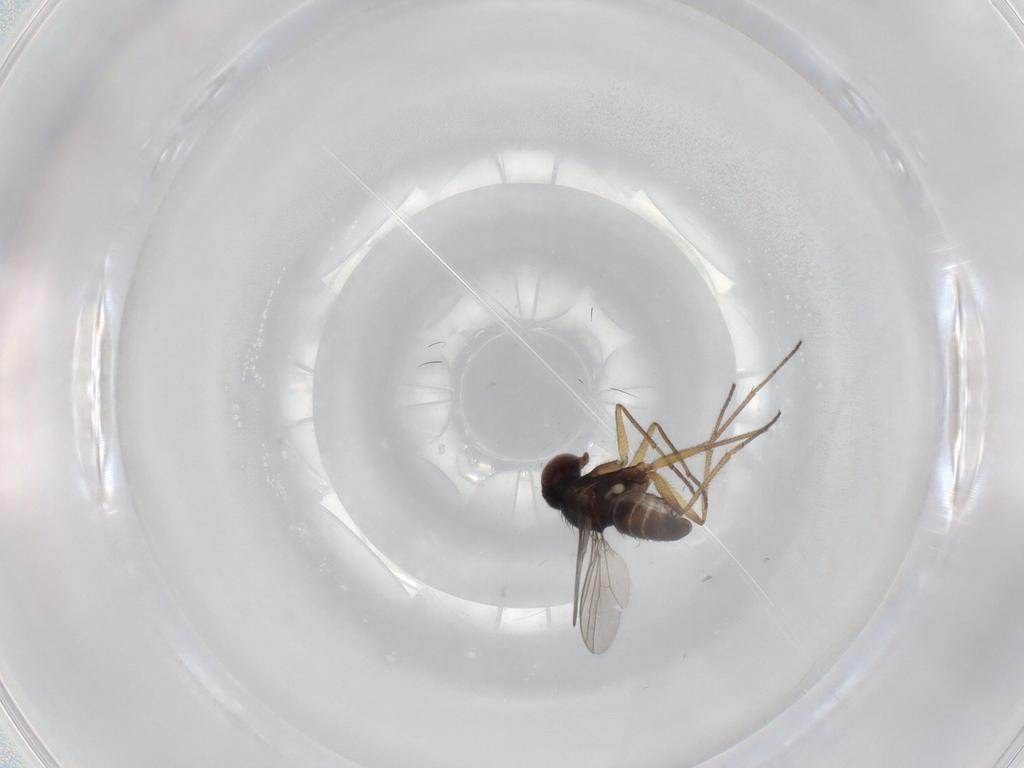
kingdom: Animalia
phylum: Arthropoda
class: Insecta
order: Diptera
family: Dolichopodidae
